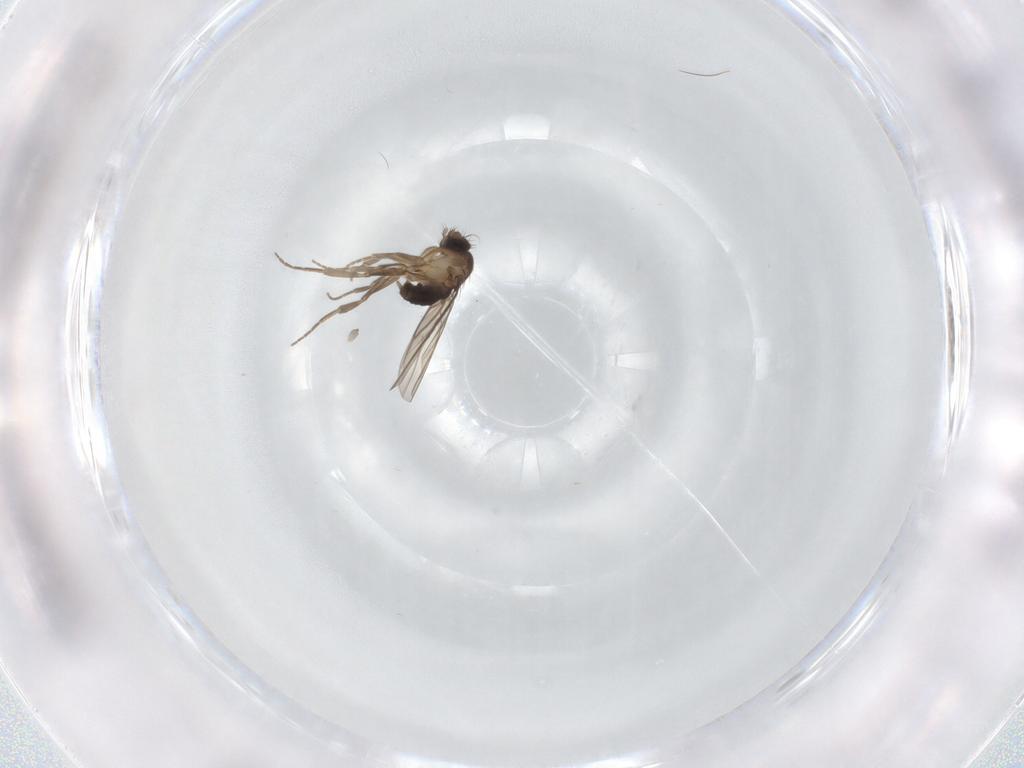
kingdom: Animalia
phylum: Arthropoda
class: Insecta
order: Diptera
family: Phoridae
